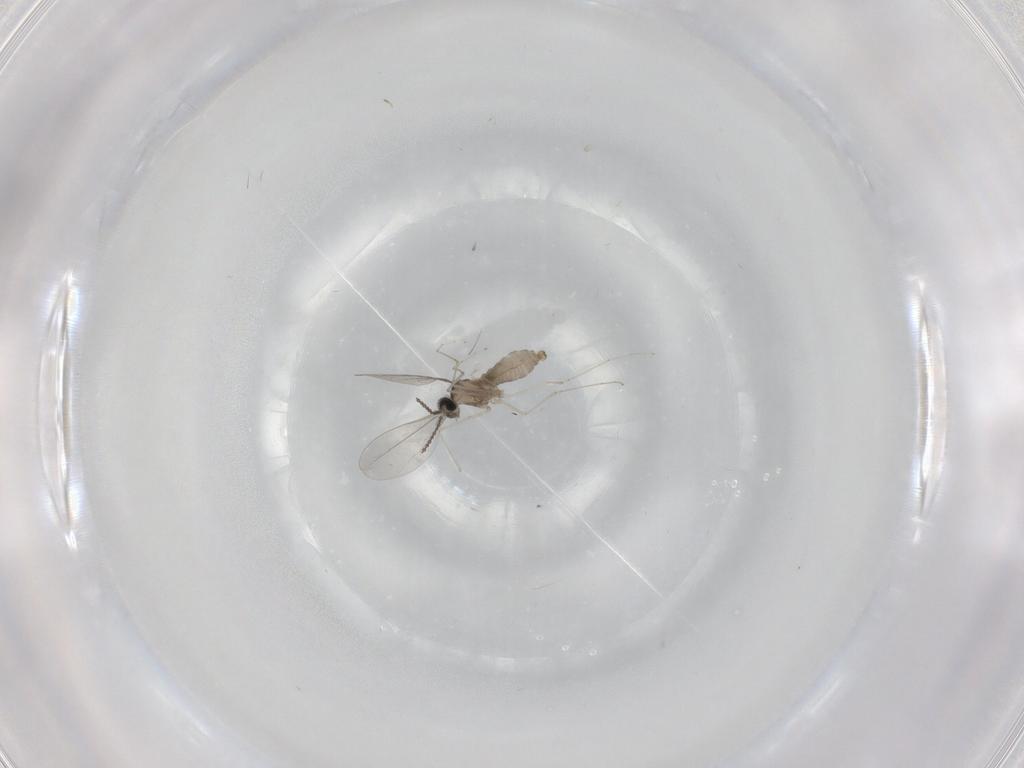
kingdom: Animalia
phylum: Arthropoda
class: Insecta
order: Diptera
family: Cecidomyiidae
